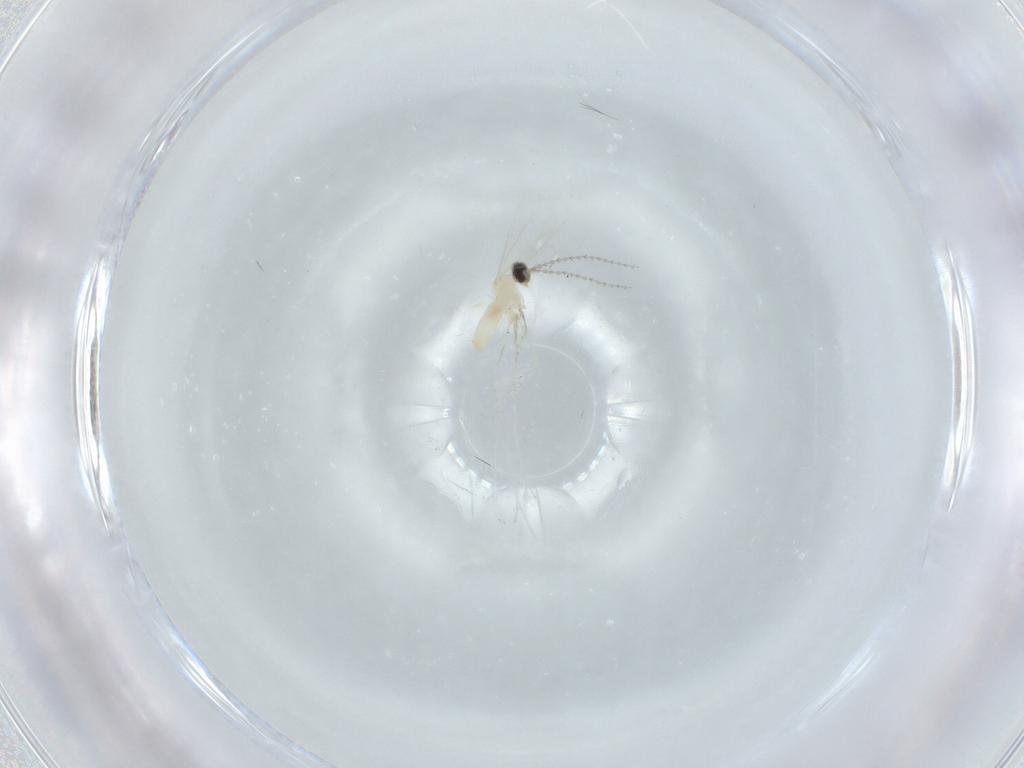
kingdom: Animalia
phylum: Arthropoda
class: Insecta
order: Diptera
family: Cecidomyiidae
